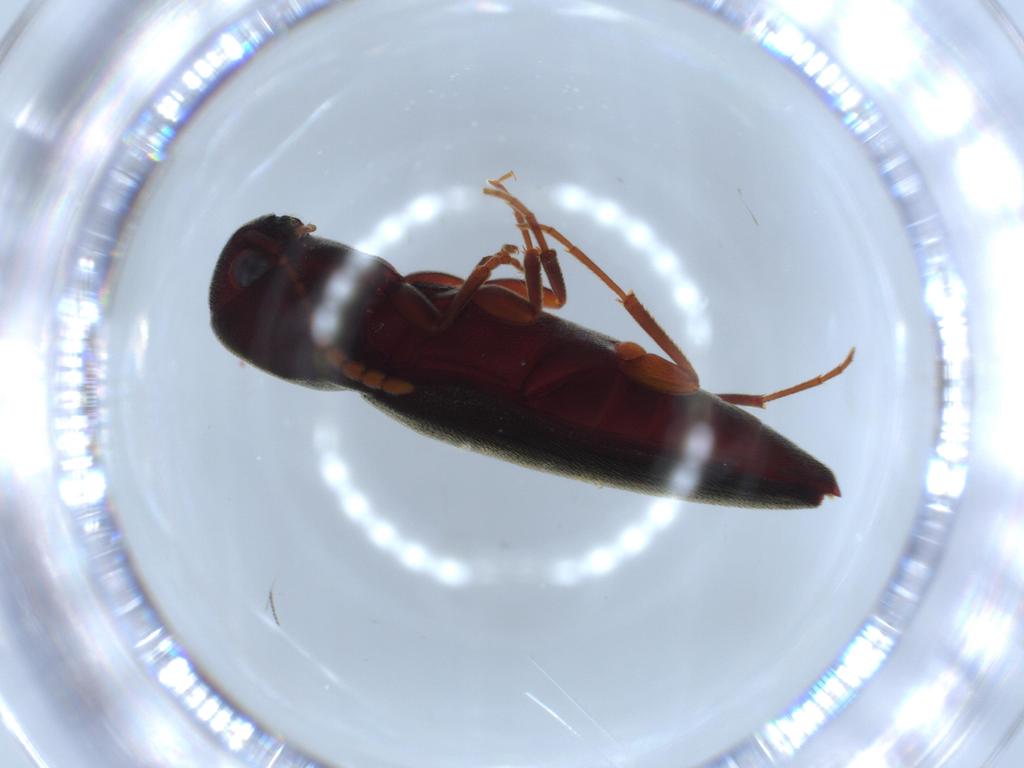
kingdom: Animalia
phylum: Arthropoda
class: Insecta
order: Coleoptera
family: Eucnemidae
